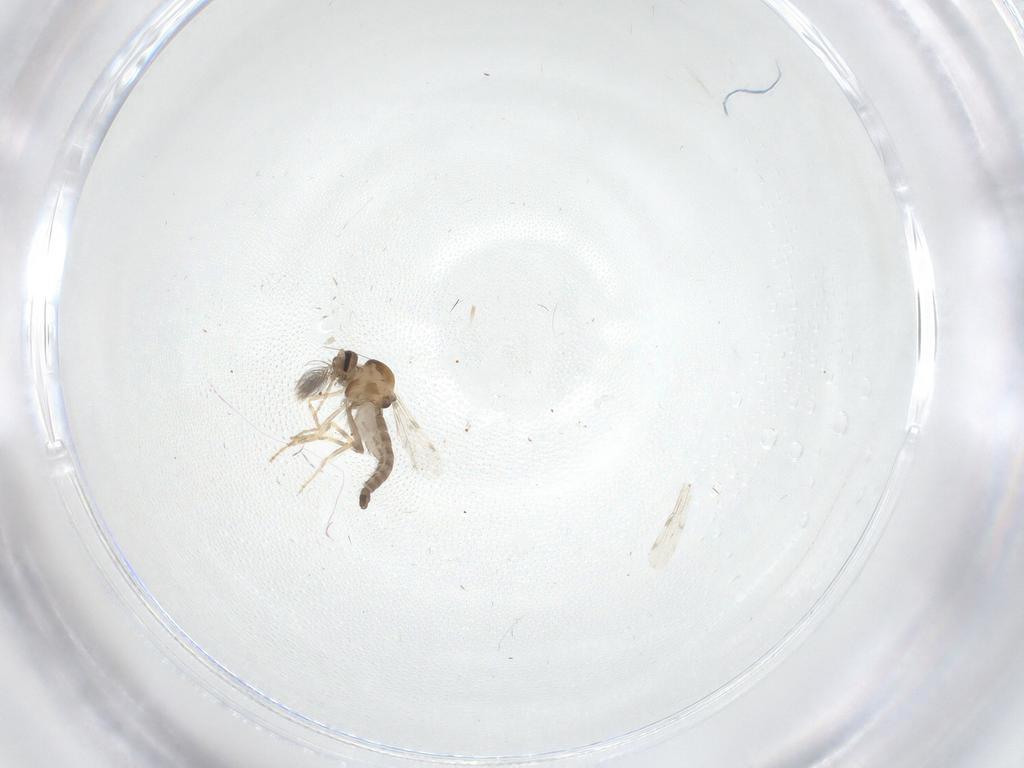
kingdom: Animalia
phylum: Arthropoda
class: Insecta
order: Diptera
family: Ceratopogonidae
